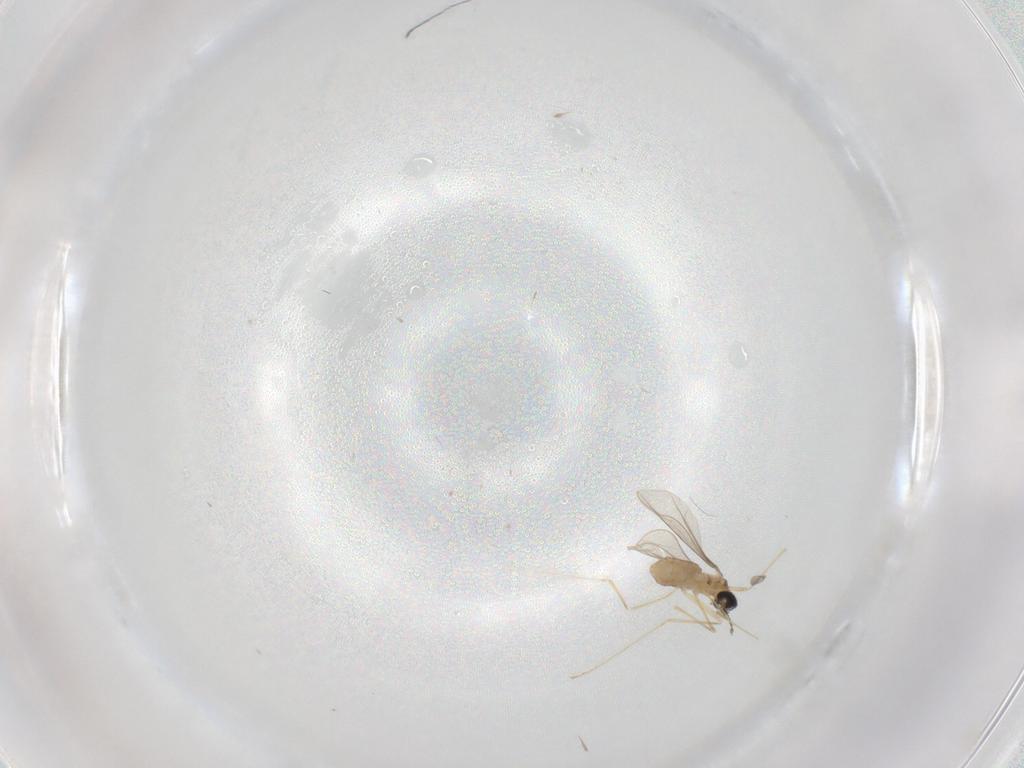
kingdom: Animalia
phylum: Arthropoda
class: Insecta
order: Diptera
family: Cecidomyiidae
